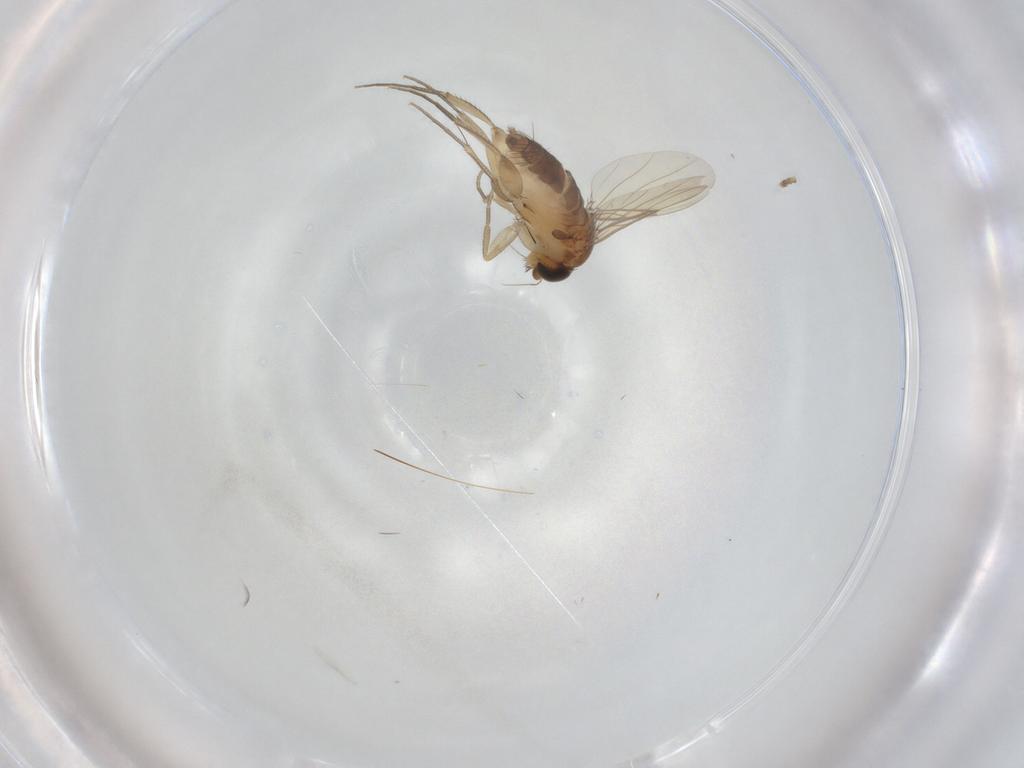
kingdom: Animalia
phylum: Arthropoda
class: Insecta
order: Diptera
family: Phoridae
